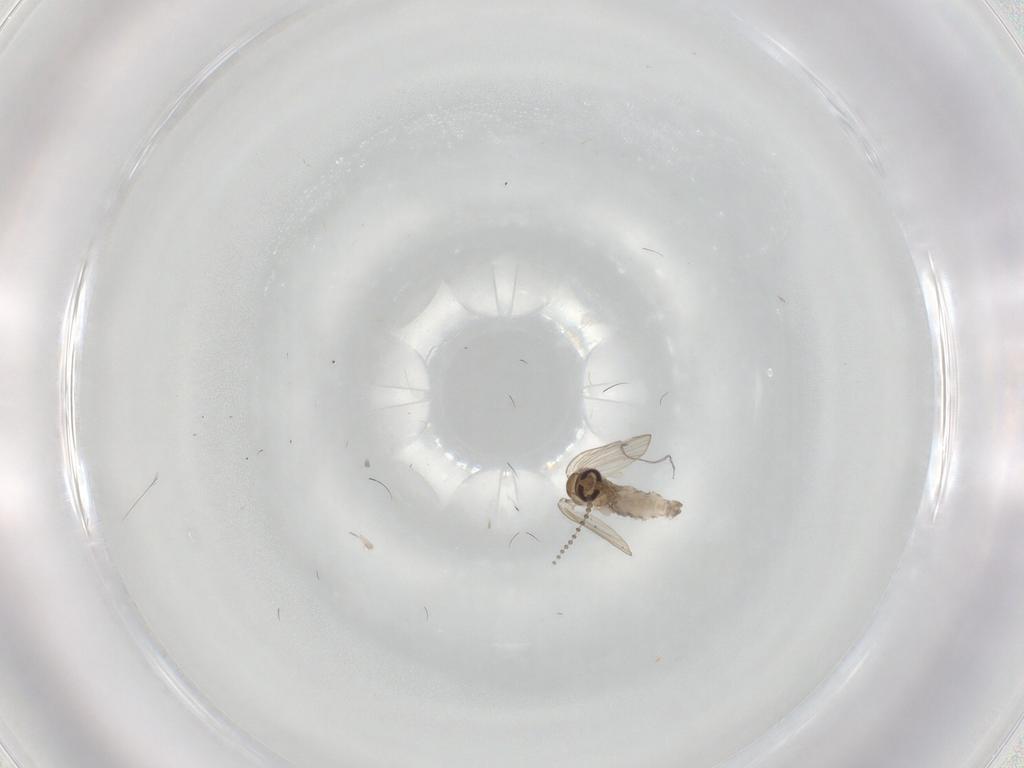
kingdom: Animalia
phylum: Arthropoda
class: Insecta
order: Diptera
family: Psychodidae
